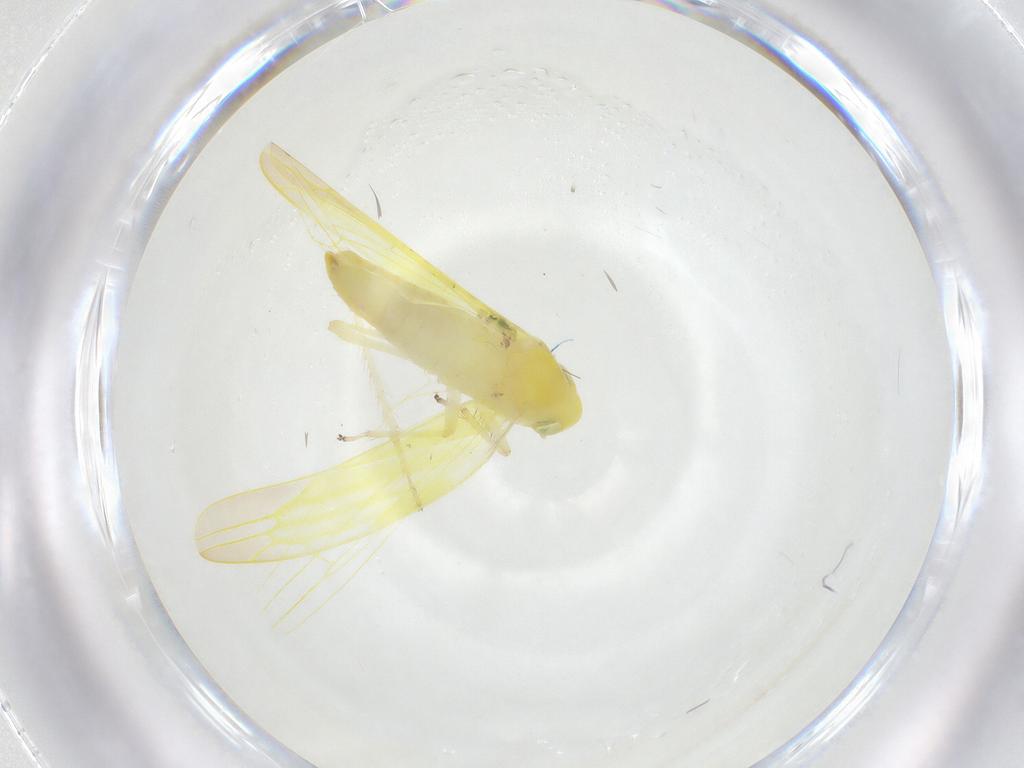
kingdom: Animalia
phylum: Arthropoda
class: Insecta
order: Hemiptera
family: Cicadellidae
